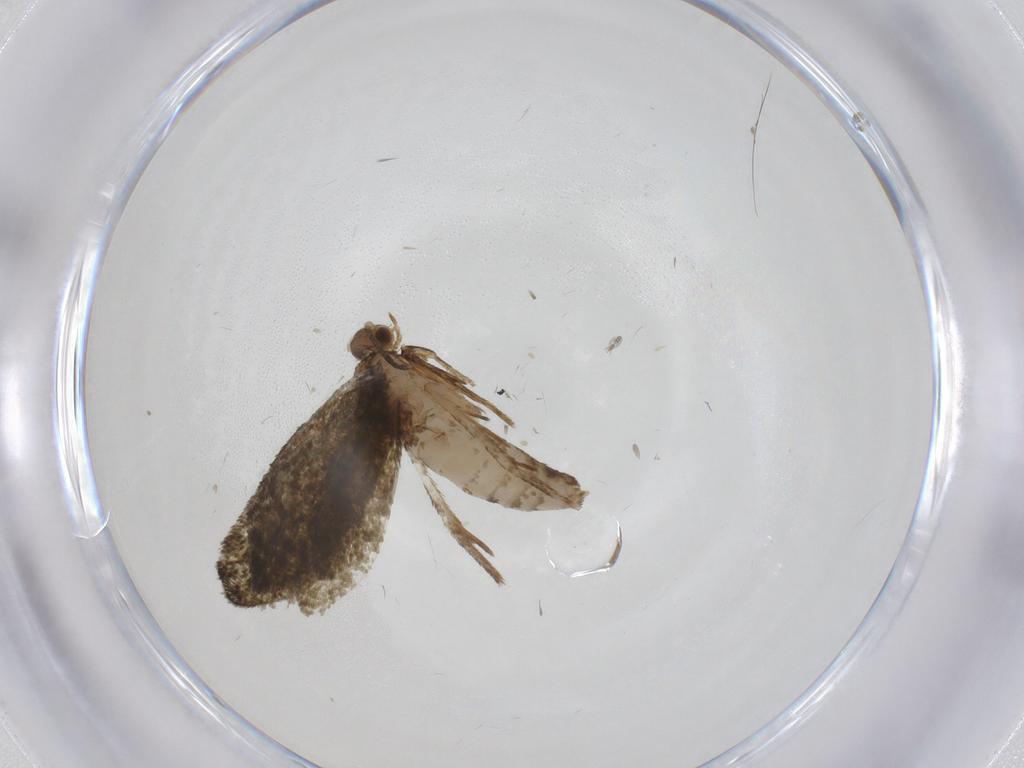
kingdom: Animalia
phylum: Arthropoda
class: Insecta
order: Lepidoptera
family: Tineidae
